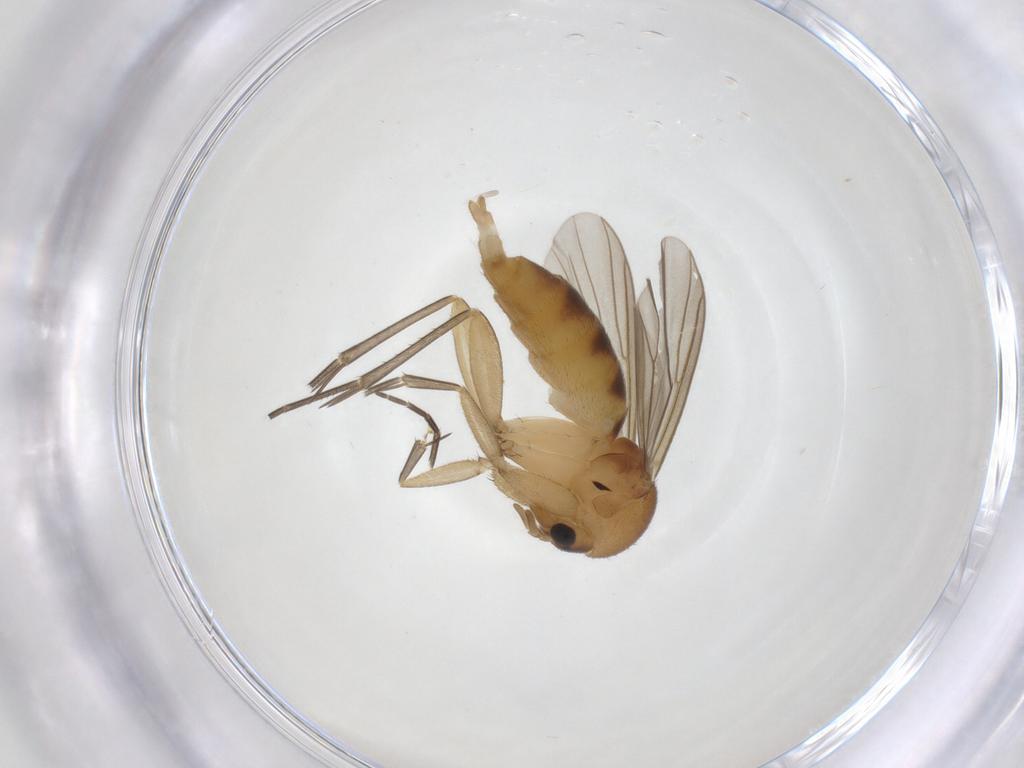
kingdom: Animalia
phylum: Arthropoda
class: Insecta
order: Diptera
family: Mycetophilidae
